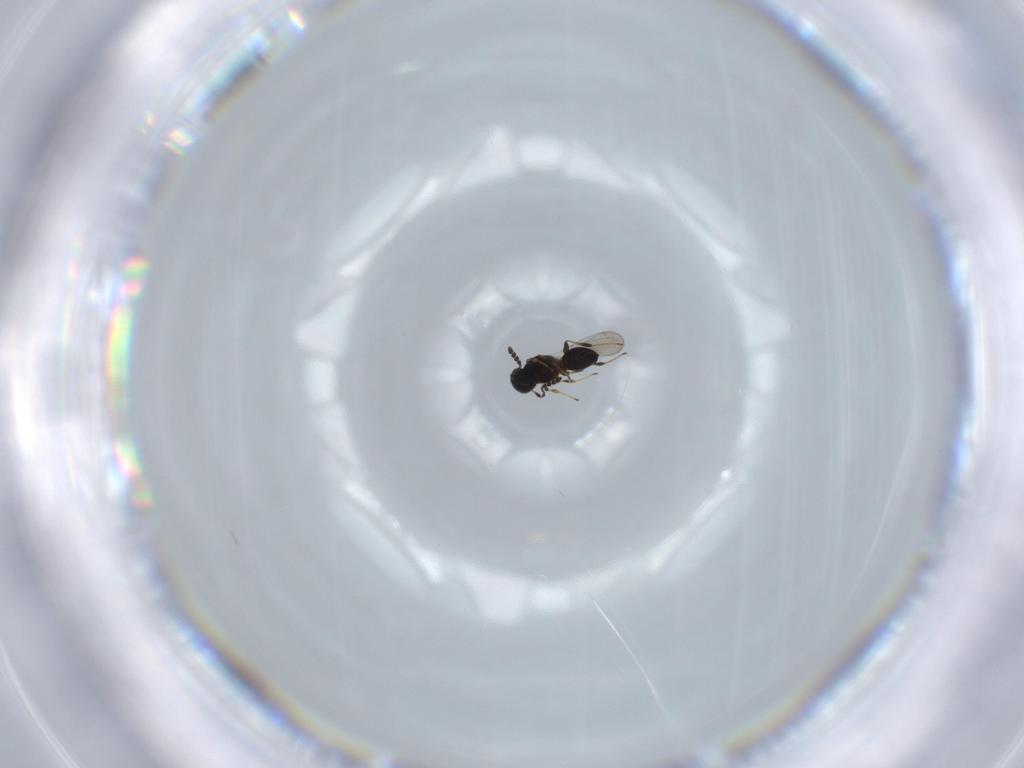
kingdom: Animalia
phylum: Arthropoda
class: Insecta
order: Hymenoptera
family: Platygastridae
